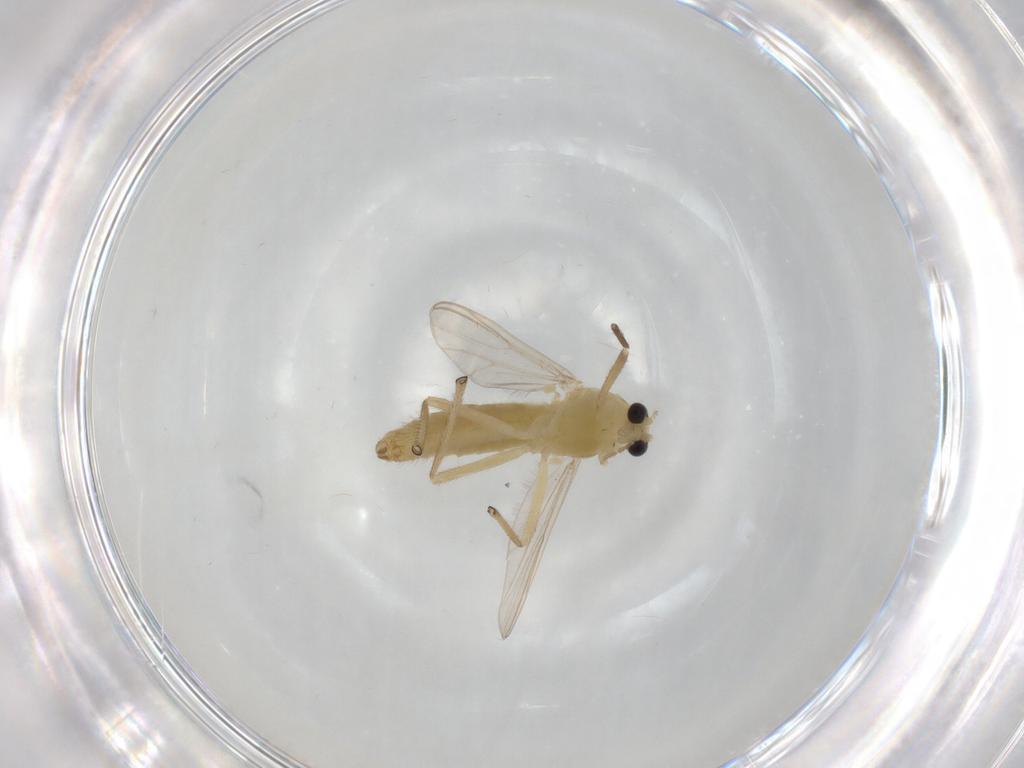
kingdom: Animalia
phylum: Arthropoda
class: Insecta
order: Diptera
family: Chironomidae
